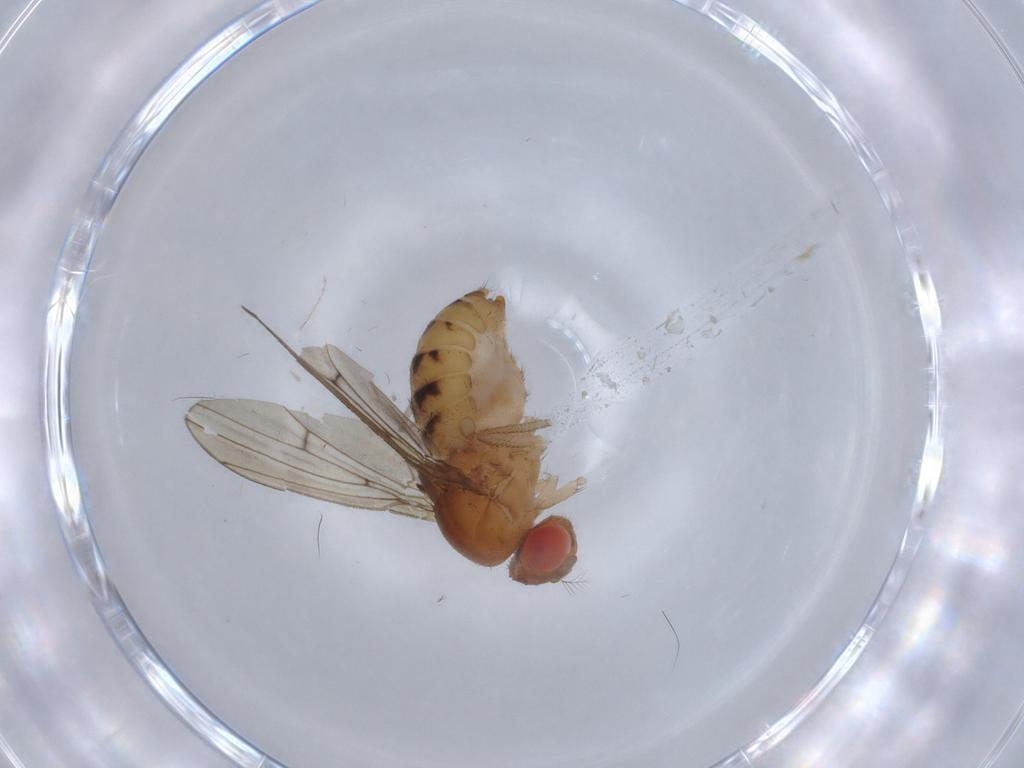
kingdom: Animalia
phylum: Arthropoda
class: Insecta
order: Diptera
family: Drosophilidae
